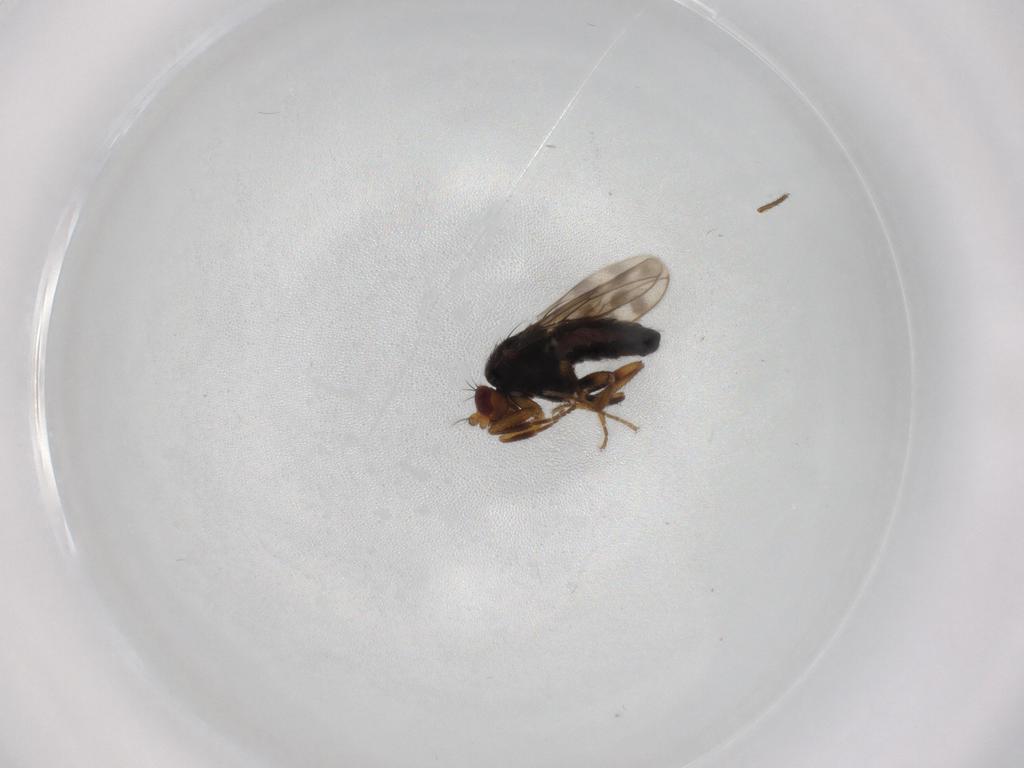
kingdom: Animalia
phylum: Arthropoda
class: Insecta
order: Diptera
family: Sphaeroceridae
